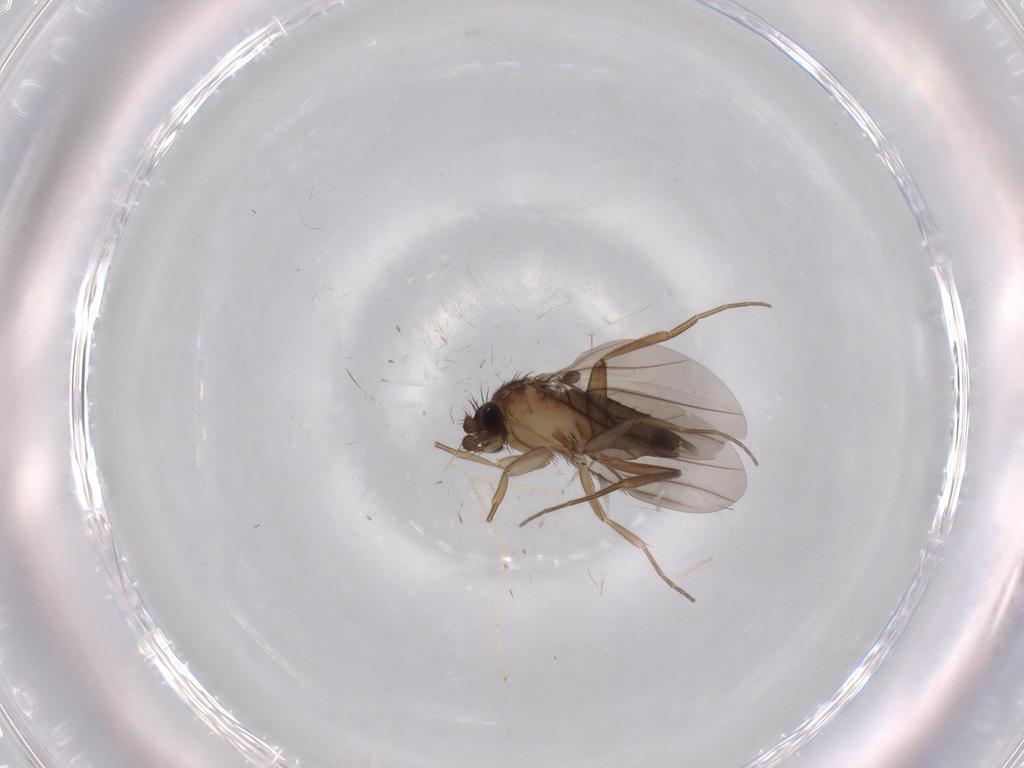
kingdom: Animalia
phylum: Arthropoda
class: Insecta
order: Diptera
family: Cecidomyiidae
